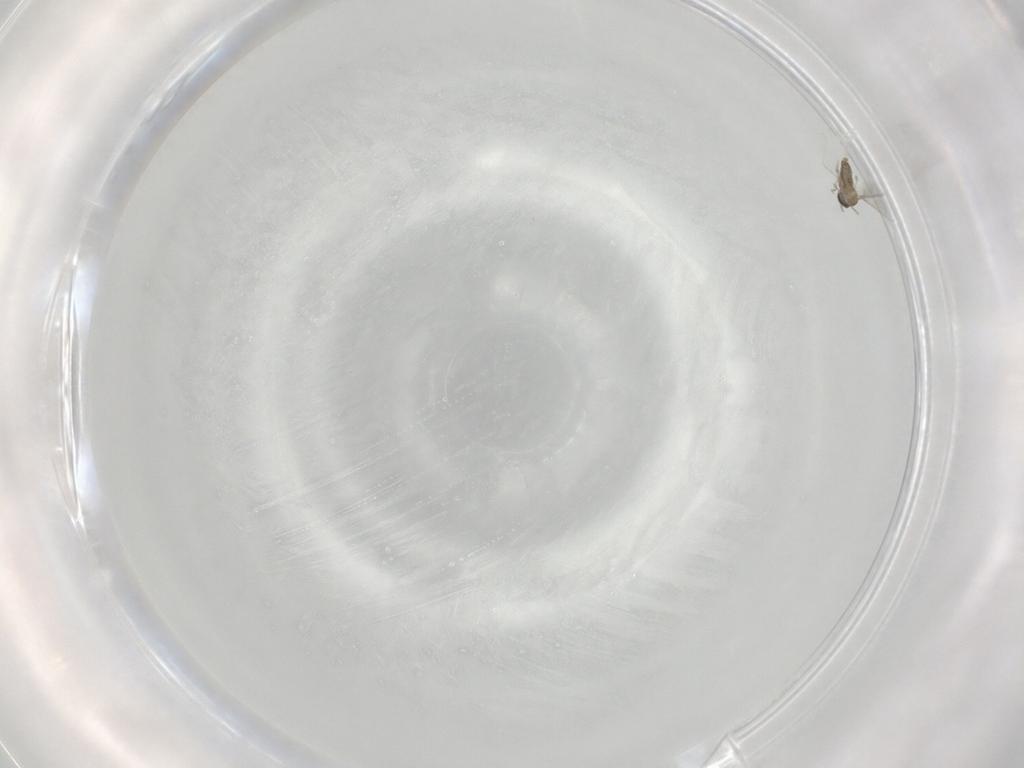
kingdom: Animalia
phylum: Arthropoda
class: Insecta
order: Diptera
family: Cecidomyiidae
